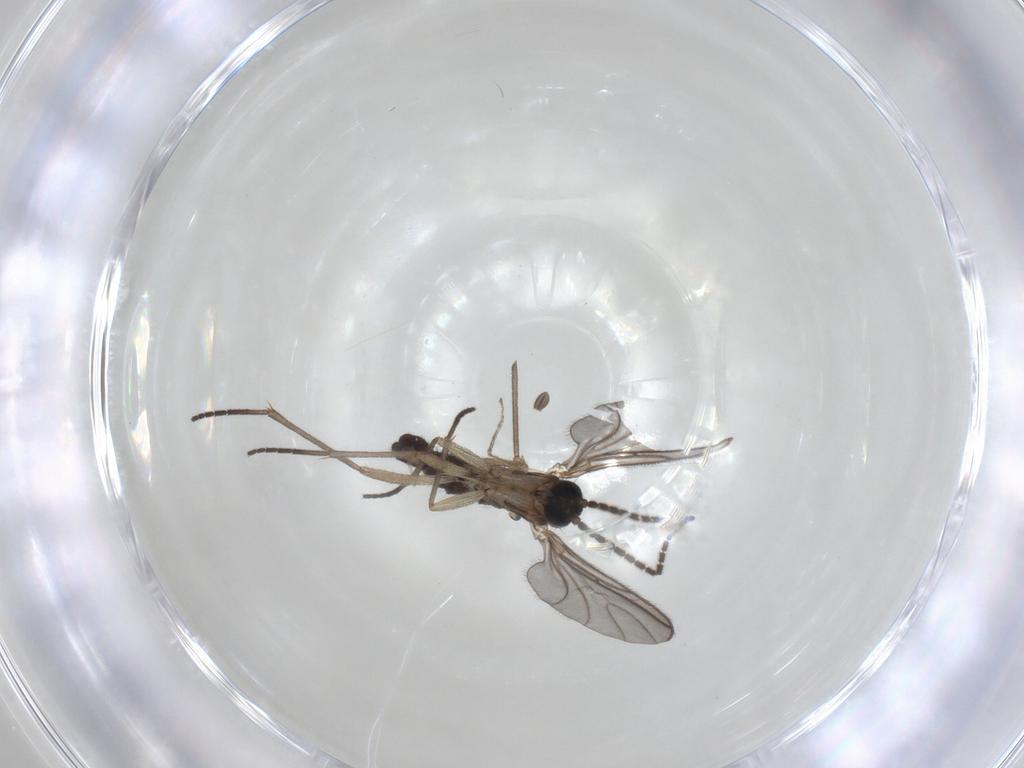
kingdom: Animalia
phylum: Arthropoda
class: Insecta
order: Diptera
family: Sciaridae
